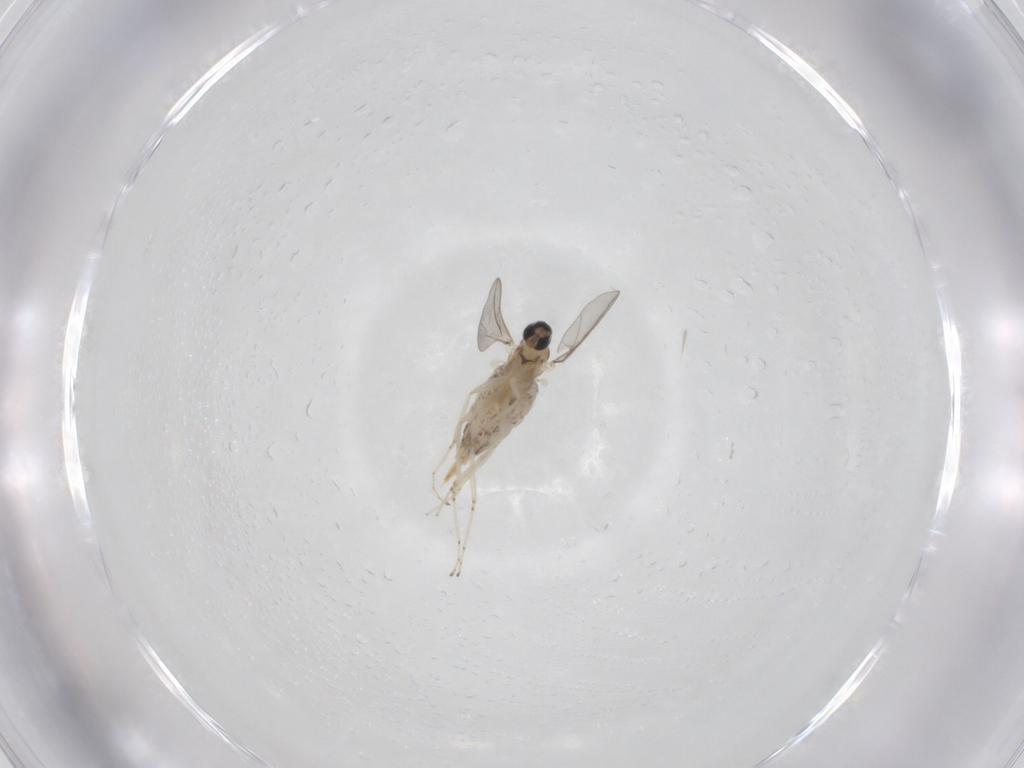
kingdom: Animalia
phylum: Arthropoda
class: Insecta
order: Diptera
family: Cecidomyiidae
